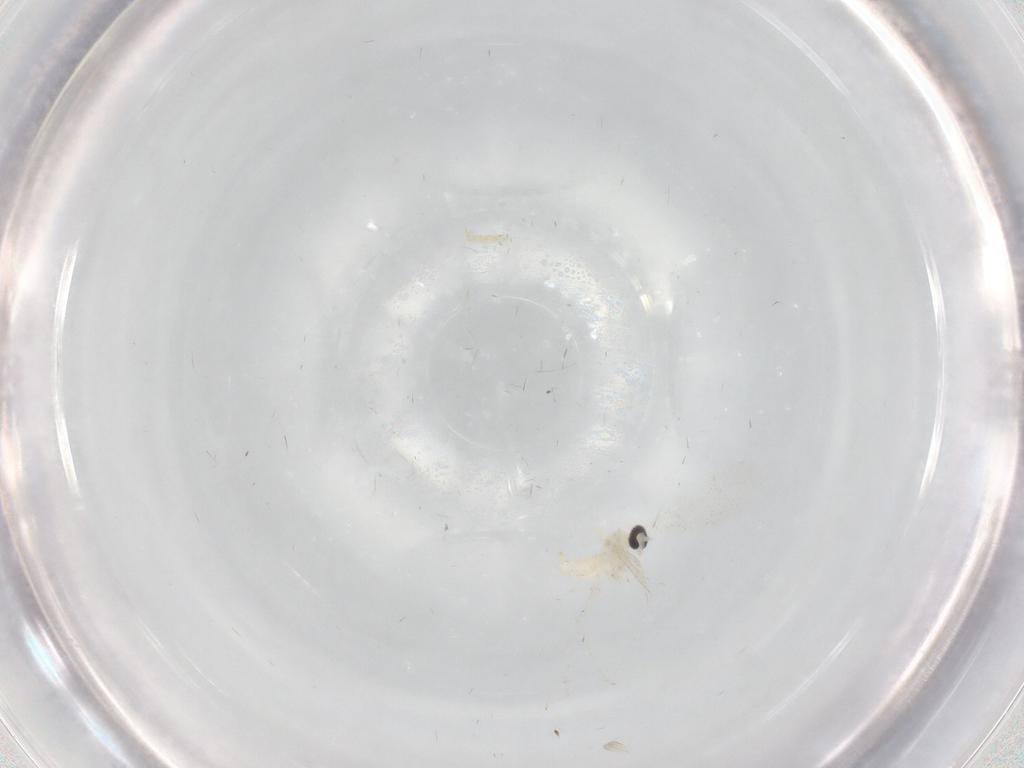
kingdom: Animalia
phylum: Arthropoda
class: Insecta
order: Diptera
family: Cecidomyiidae
